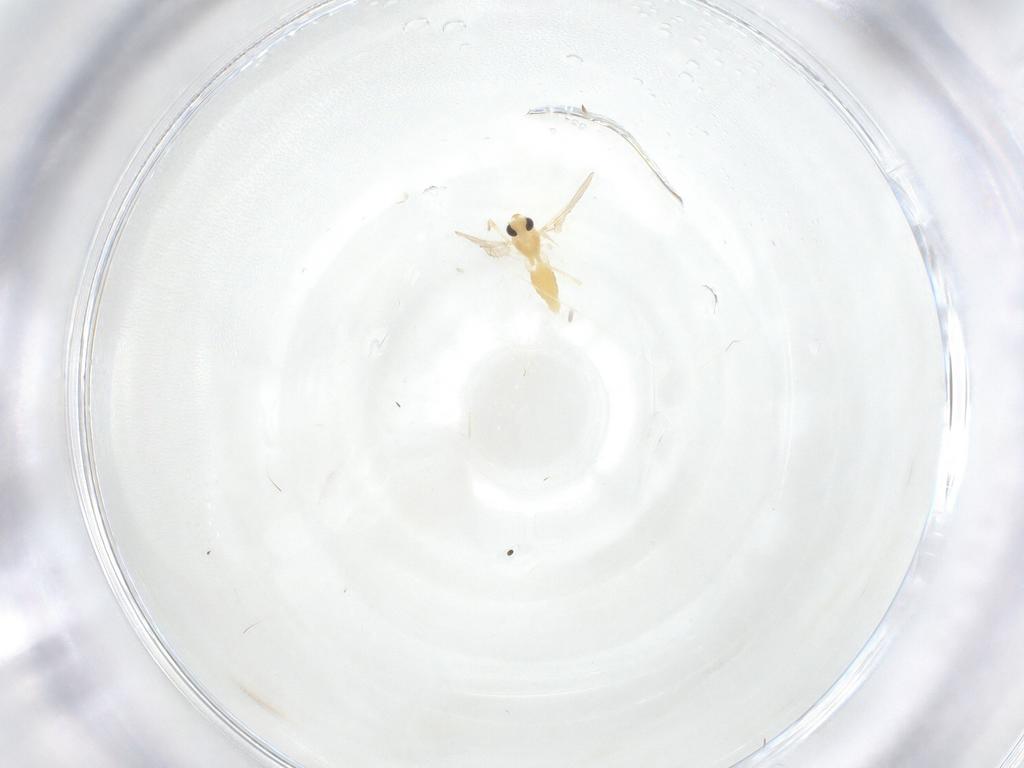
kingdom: Animalia
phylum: Arthropoda
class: Insecta
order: Diptera
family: Chironomidae
